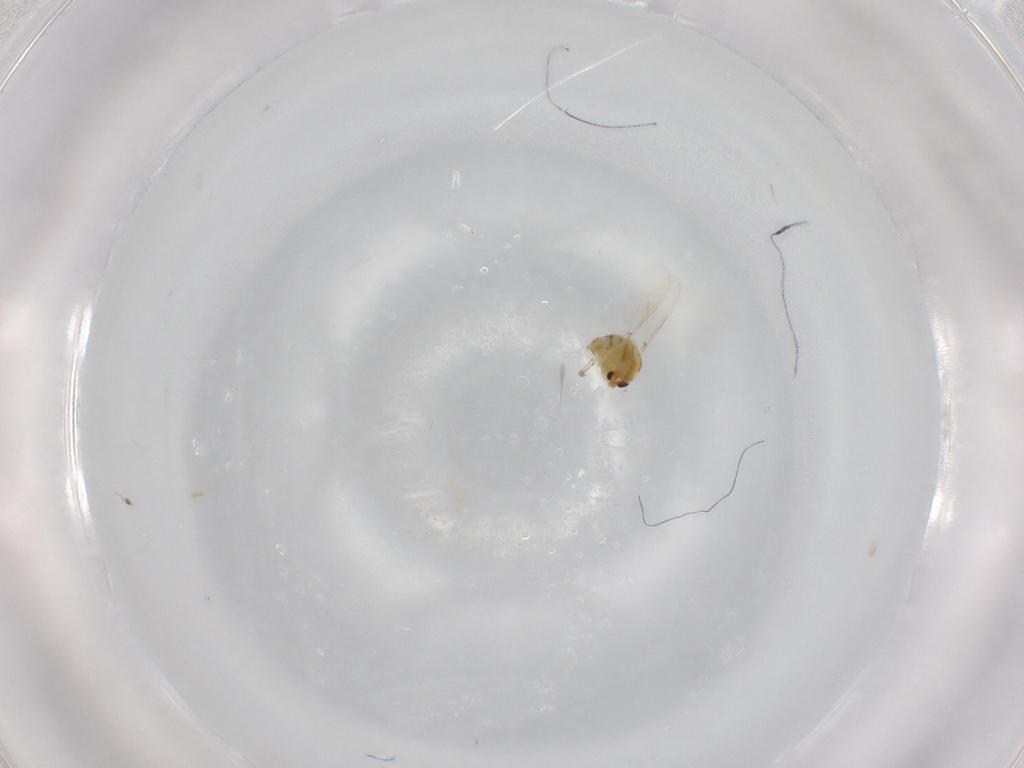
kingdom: Animalia
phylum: Arthropoda
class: Insecta
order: Diptera
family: Chironomidae
